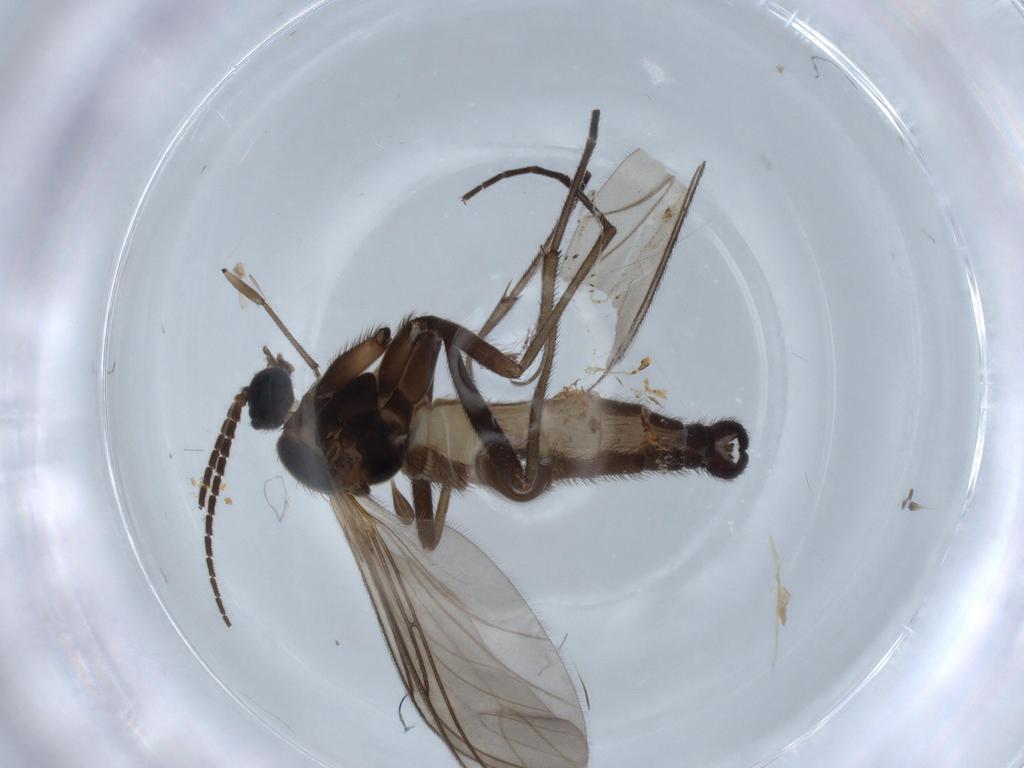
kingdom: Animalia
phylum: Arthropoda
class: Insecta
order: Diptera
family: Sciaridae
